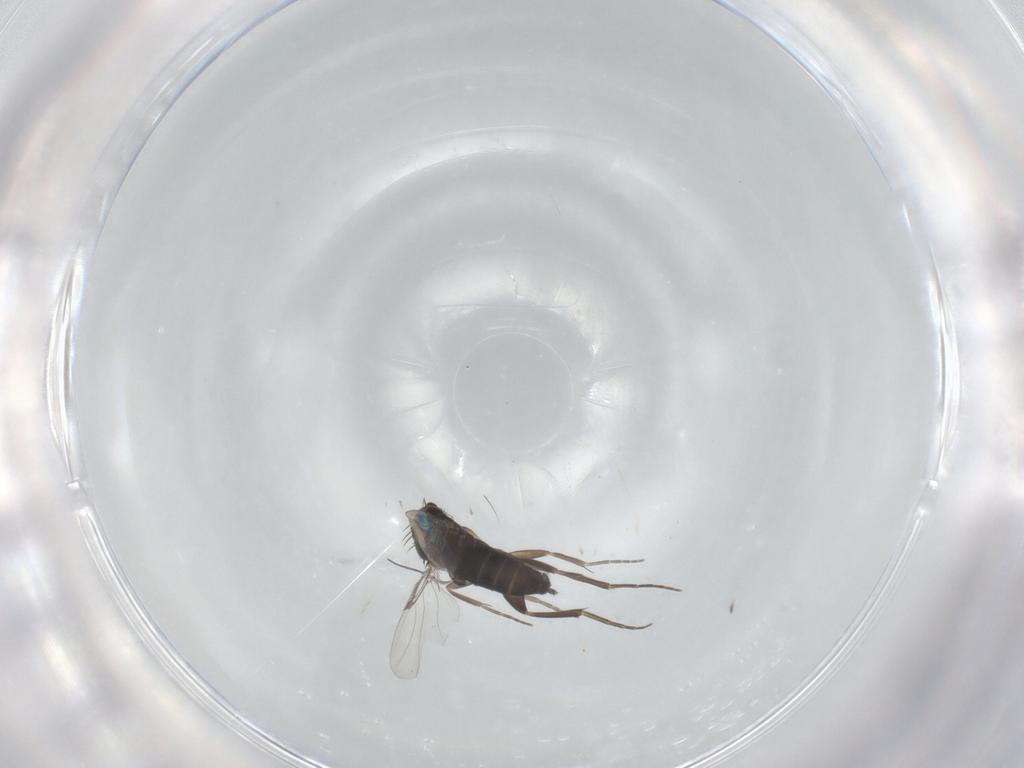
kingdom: Animalia
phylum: Arthropoda
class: Insecta
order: Diptera
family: Phoridae
